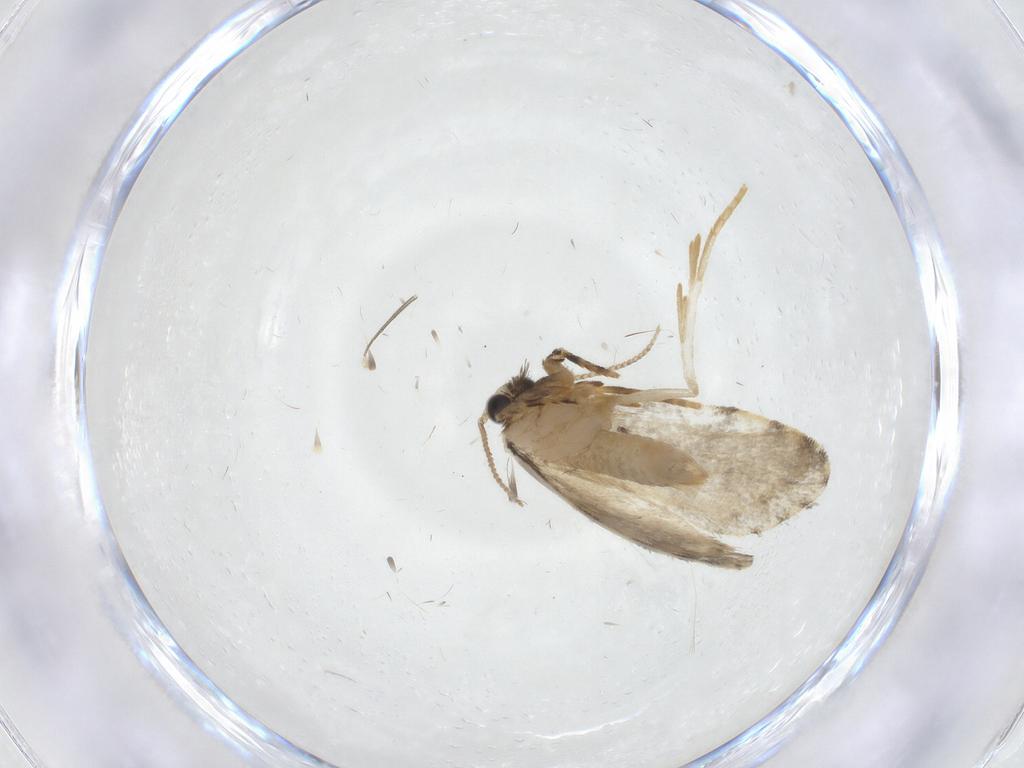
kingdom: Animalia
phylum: Arthropoda
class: Insecta
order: Lepidoptera
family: Psychidae
